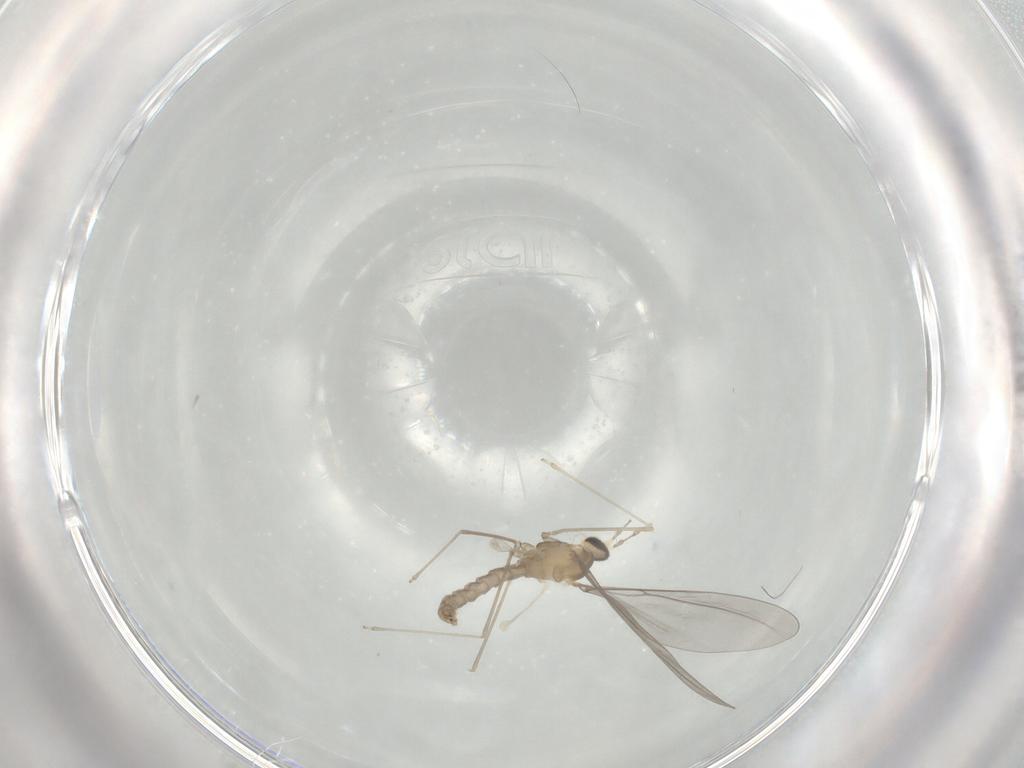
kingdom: Animalia
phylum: Arthropoda
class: Insecta
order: Diptera
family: Cecidomyiidae
